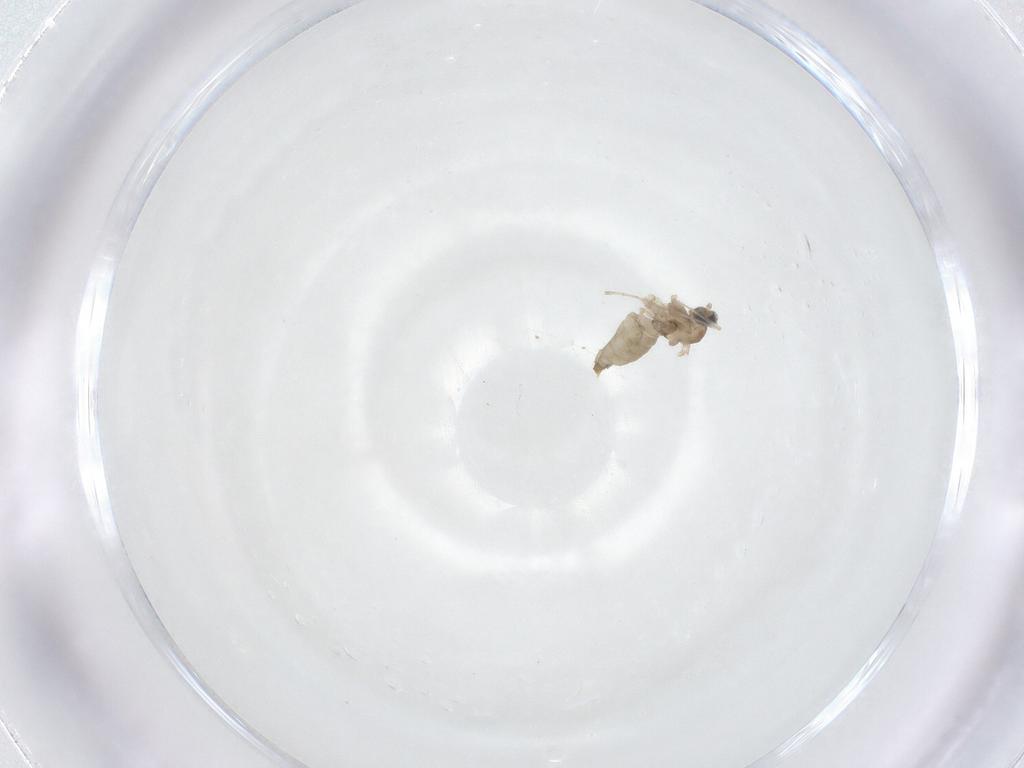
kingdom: Animalia
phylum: Arthropoda
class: Insecta
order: Diptera
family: Cecidomyiidae
